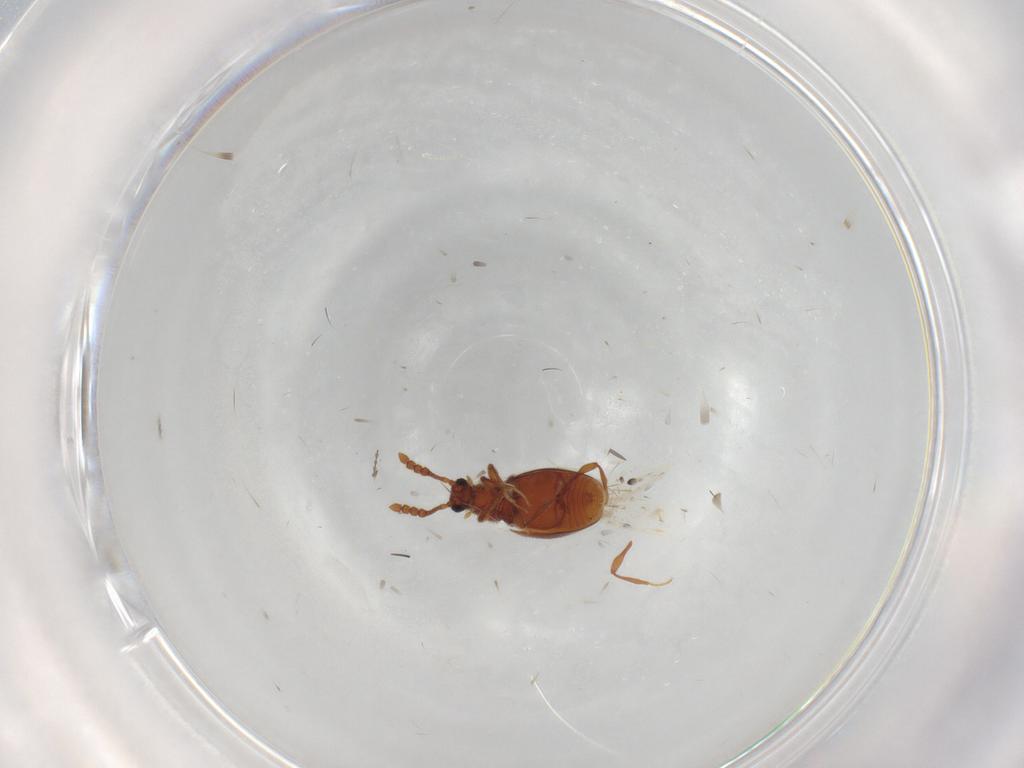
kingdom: Animalia
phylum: Arthropoda
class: Insecta
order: Coleoptera
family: Staphylinidae
